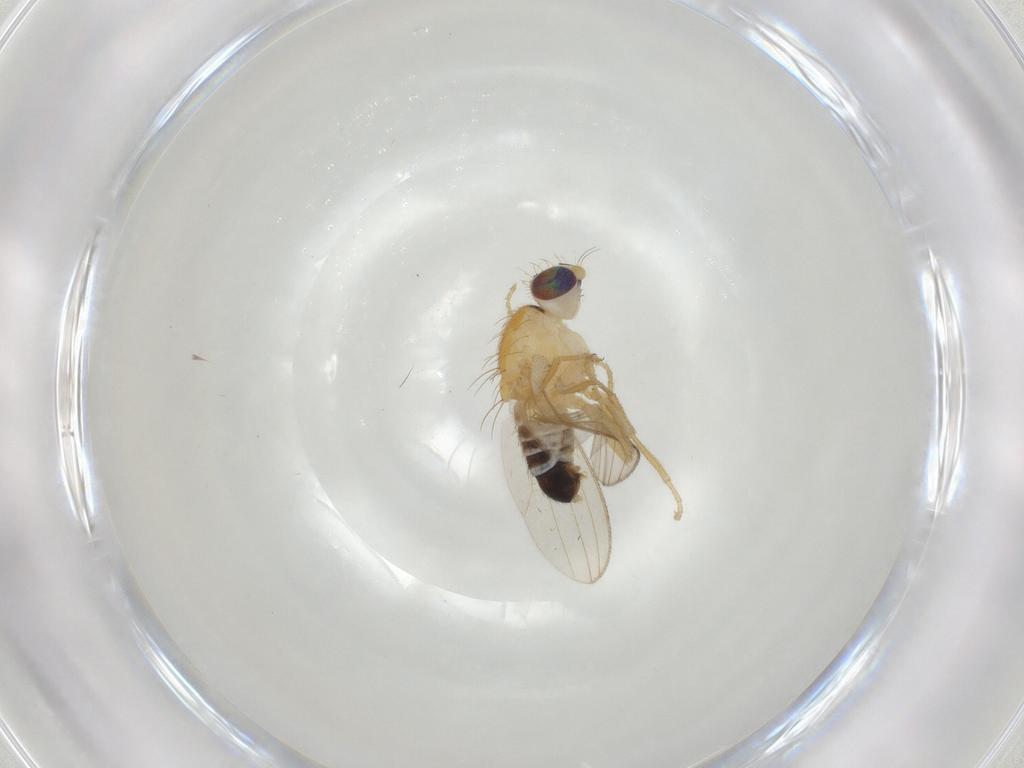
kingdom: Animalia
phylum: Arthropoda
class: Insecta
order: Diptera
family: Chyromyidae
